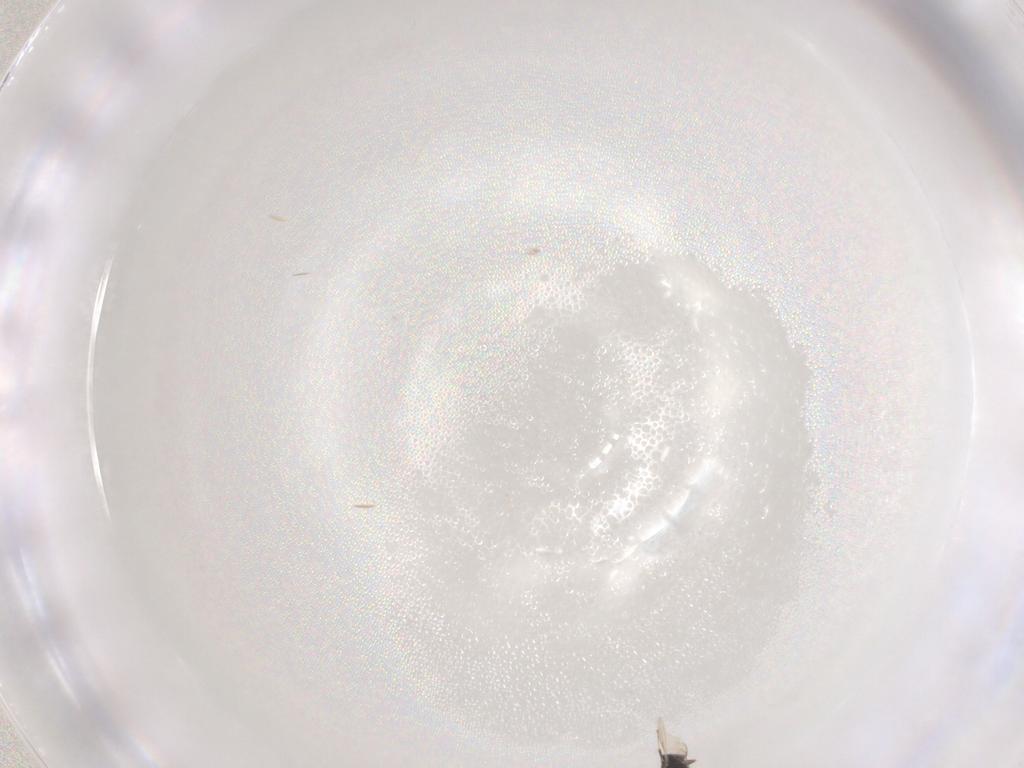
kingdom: Animalia
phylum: Arthropoda
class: Insecta
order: Hymenoptera
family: Scelionidae
